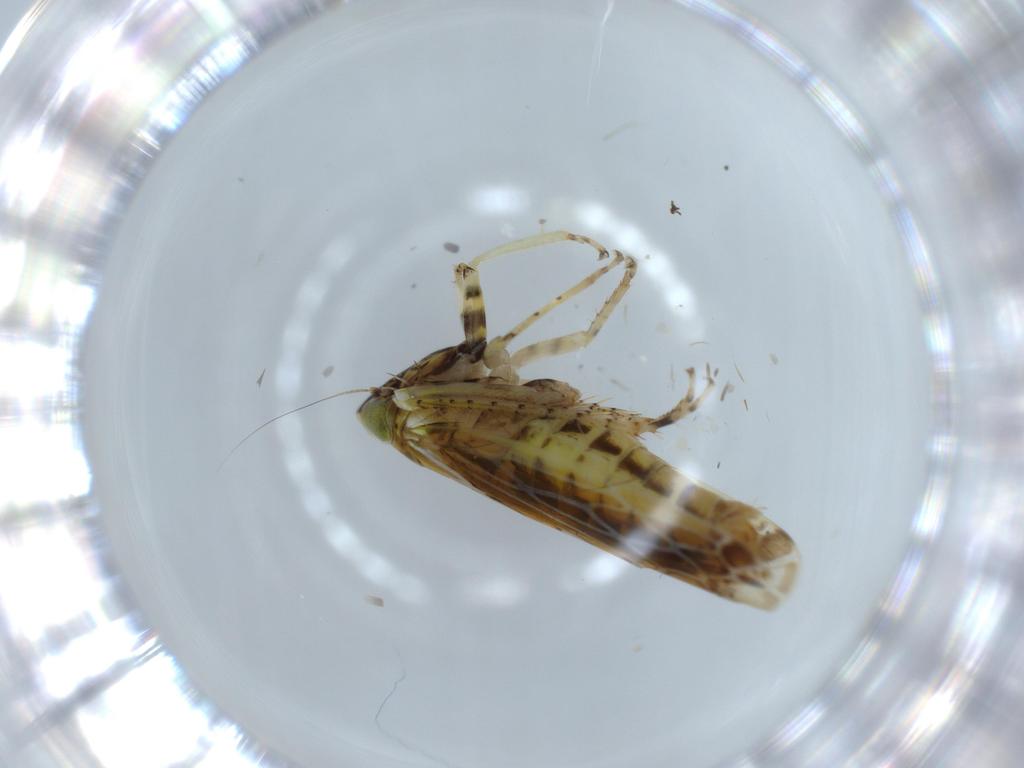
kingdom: Animalia
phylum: Arthropoda
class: Insecta
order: Hemiptera
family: Cicadellidae
